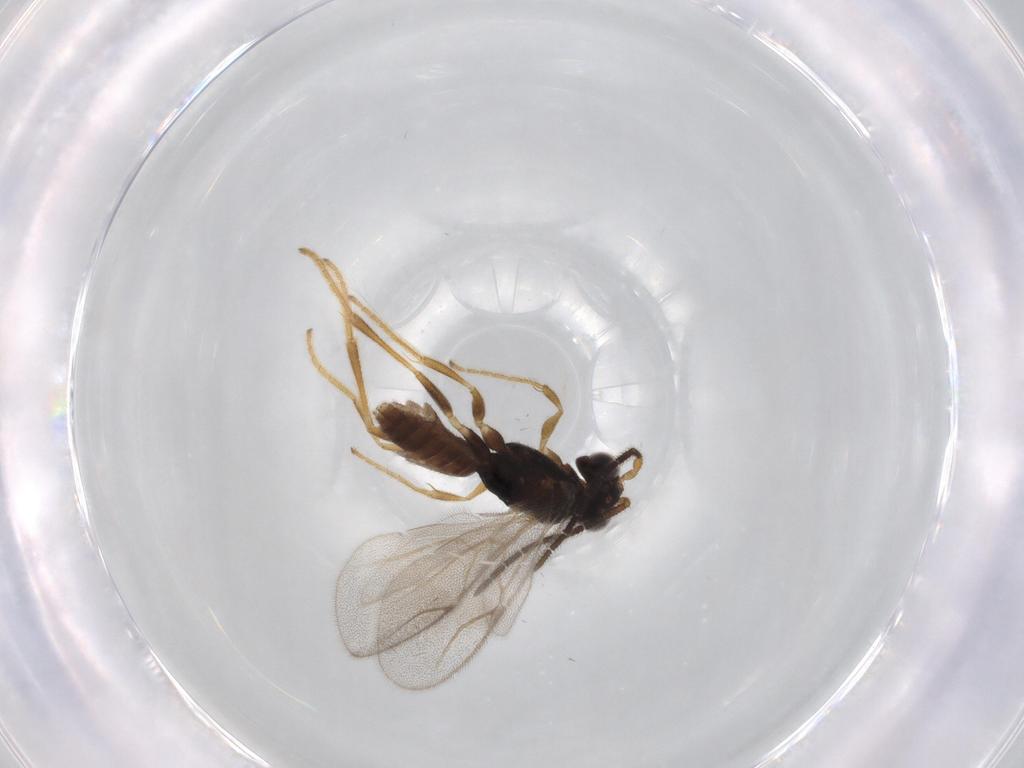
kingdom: Animalia
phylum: Arthropoda
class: Insecta
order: Hymenoptera
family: Dryinidae
